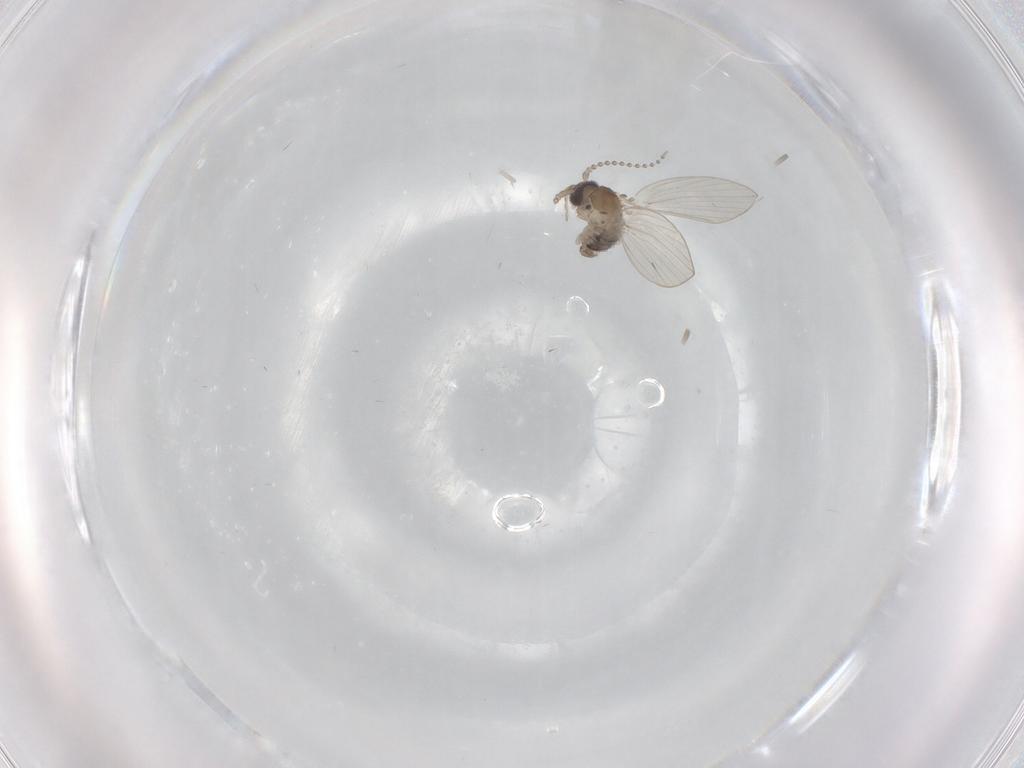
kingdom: Animalia
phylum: Arthropoda
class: Insecta
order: Diptera
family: Psychodidae
